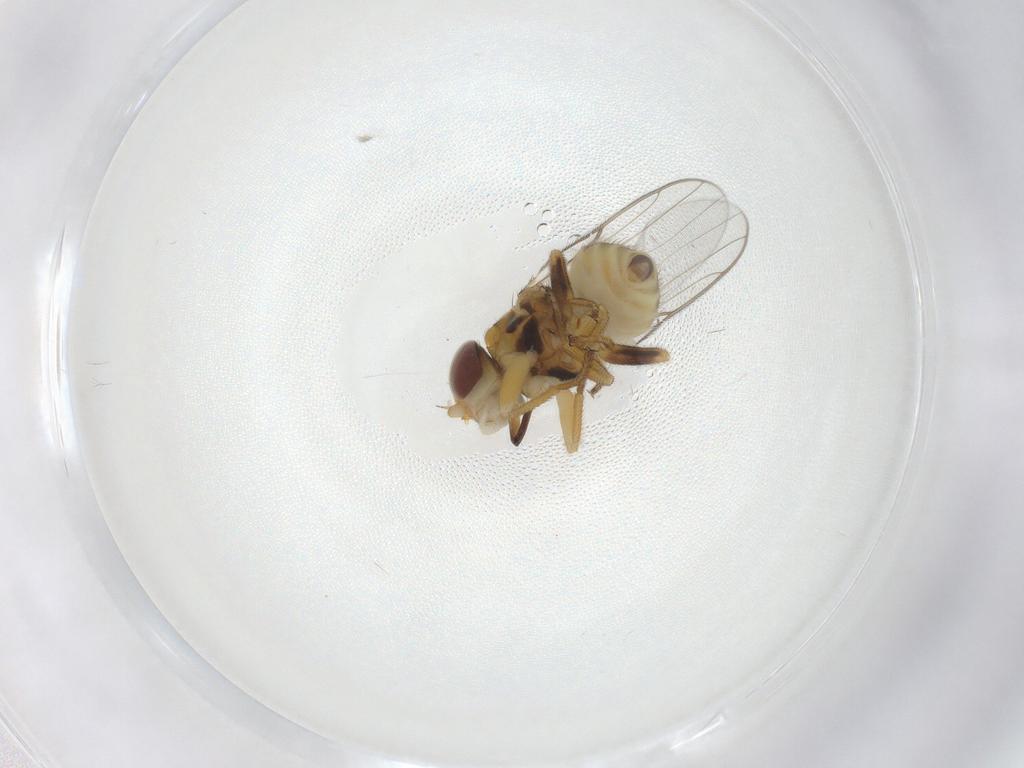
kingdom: Animalia
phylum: Arthropoda
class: Insecta
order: Diptera
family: Chloropidae
